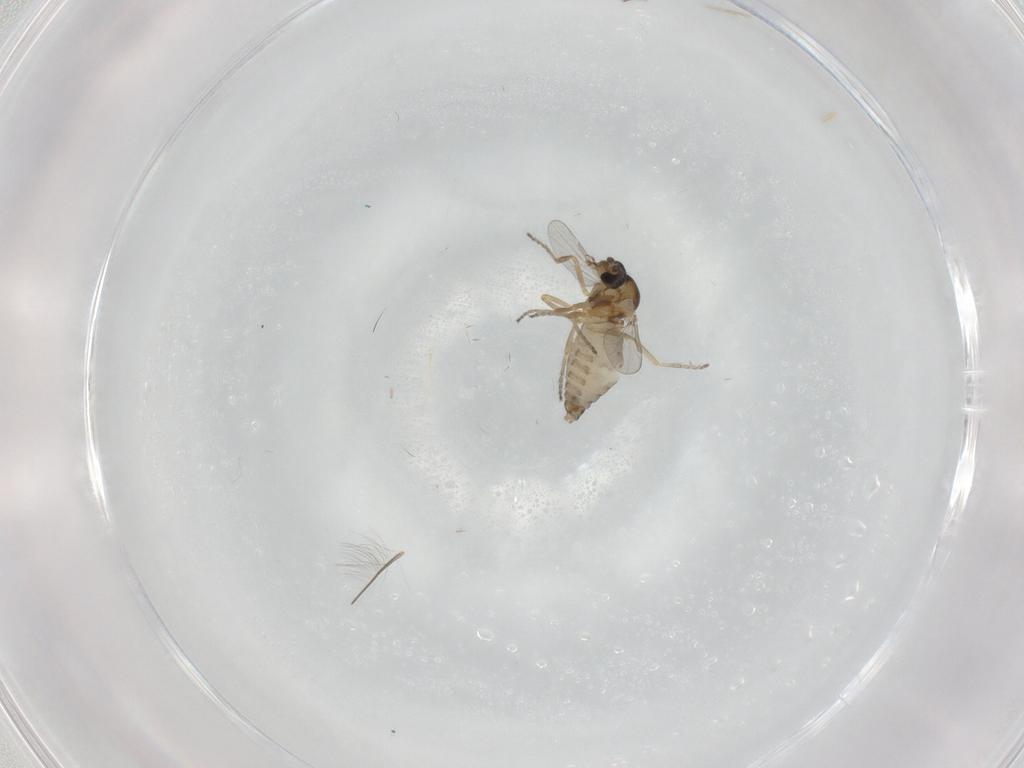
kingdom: Animalia
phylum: Arthropoda
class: Insecta
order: Diptera
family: Ceratopogonidae
